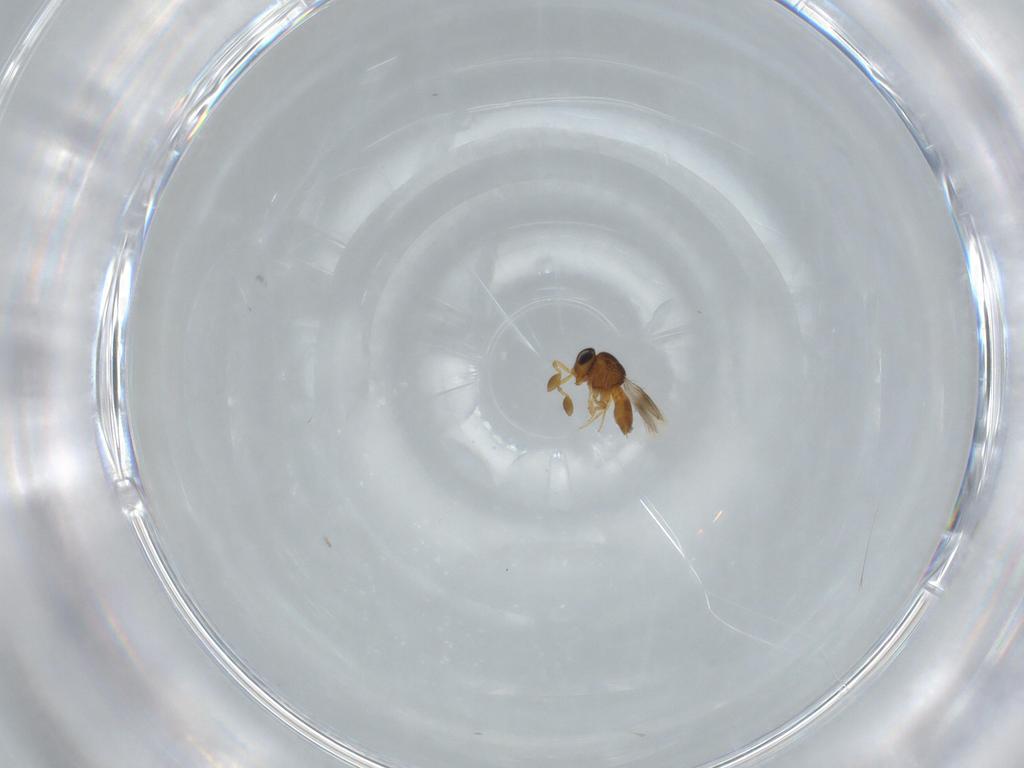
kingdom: Animalia
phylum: Arthropoda
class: Insecta
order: Hymenoptera
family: Scelionidae
